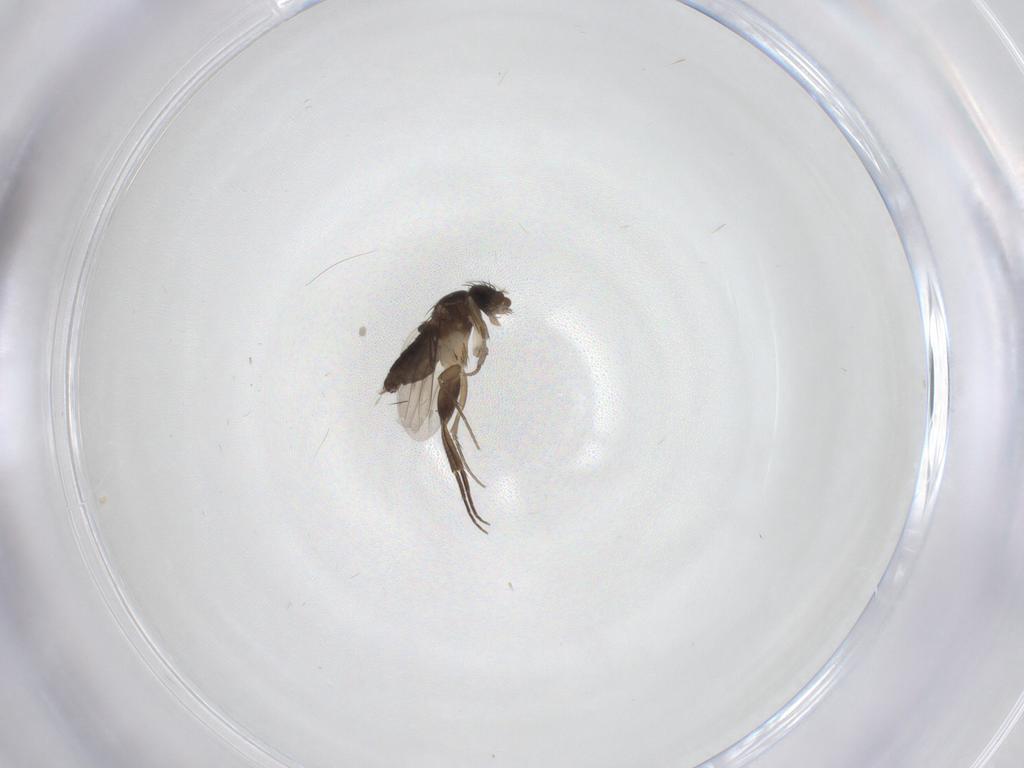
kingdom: Animalia
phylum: Arthropoda
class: Insecta
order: Diptera
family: Phoridae
